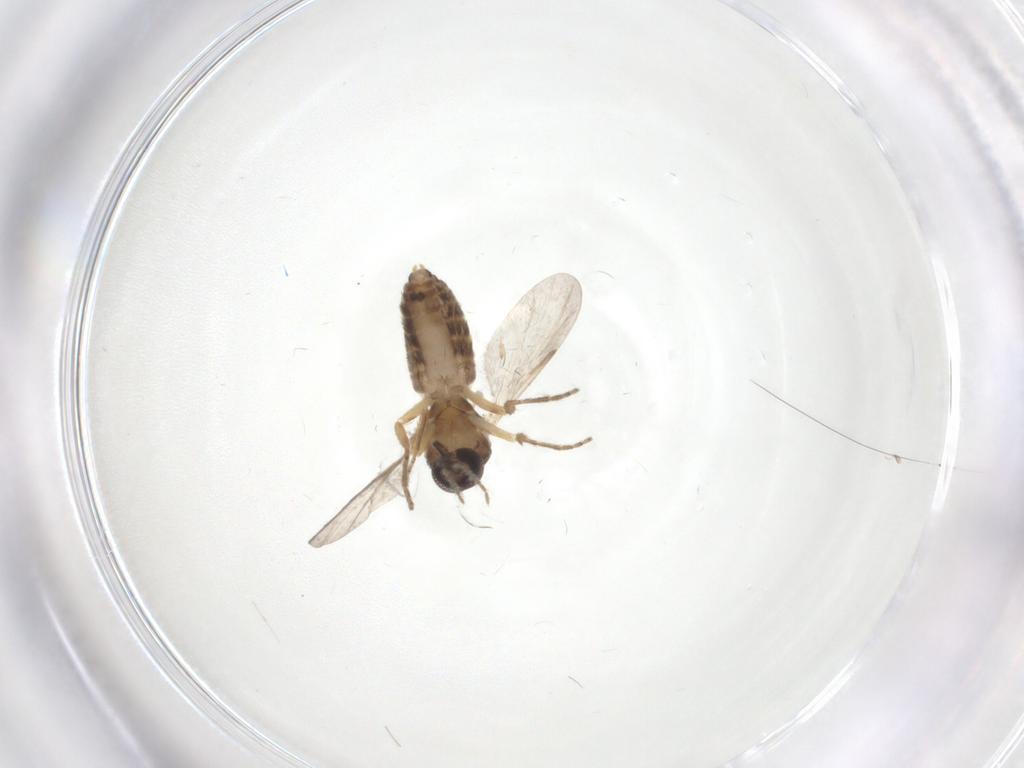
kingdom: Animalia
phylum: Arthropoda
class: Insecta
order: Diptera
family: Ceratopogonidae
